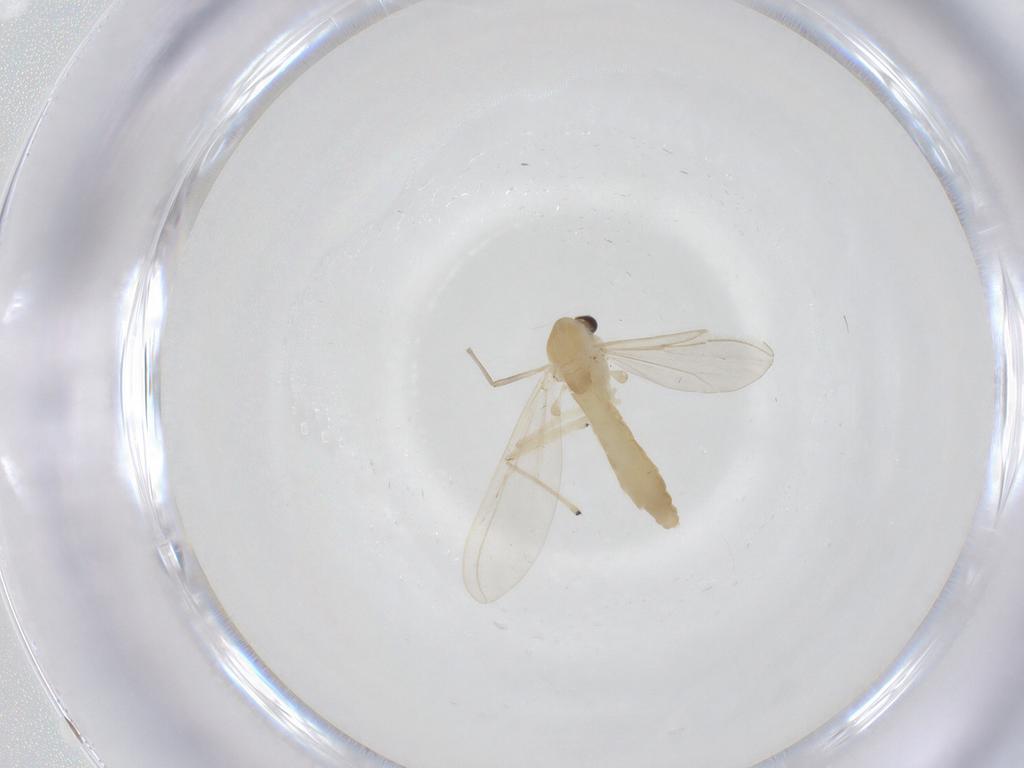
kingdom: Animalia
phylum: Arthropoda
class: Insecta
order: Diptera
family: Chironomidae
